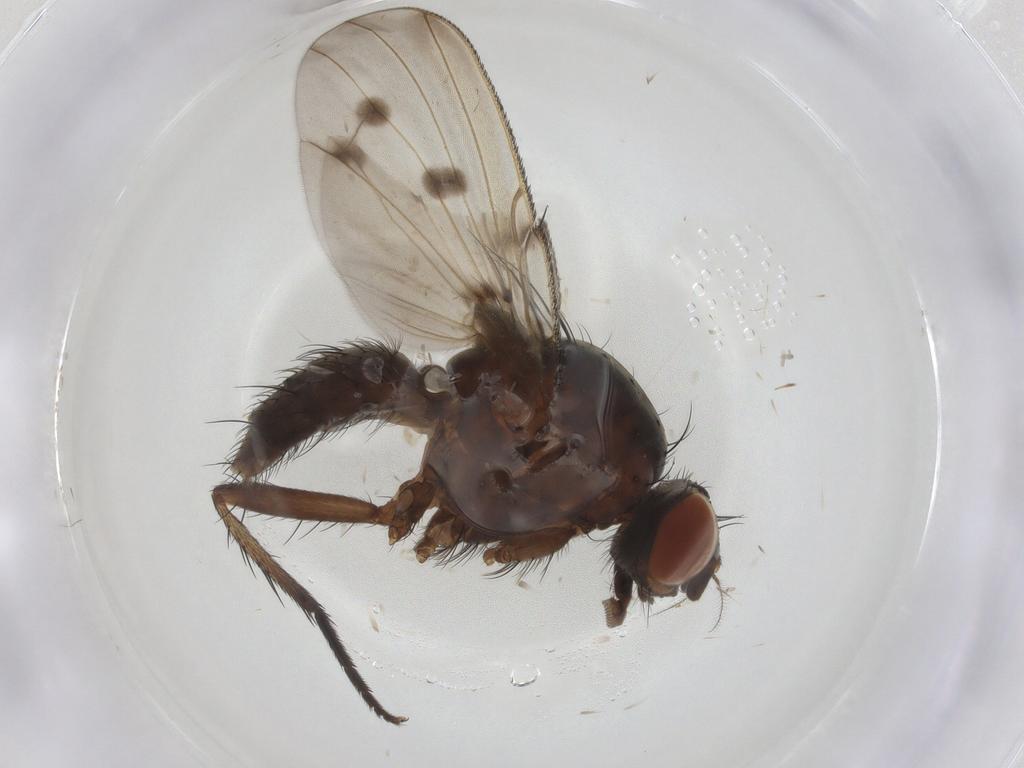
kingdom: Animalia
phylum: Arthropoda
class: Insecta
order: Diptera
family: Anthomyiidae
